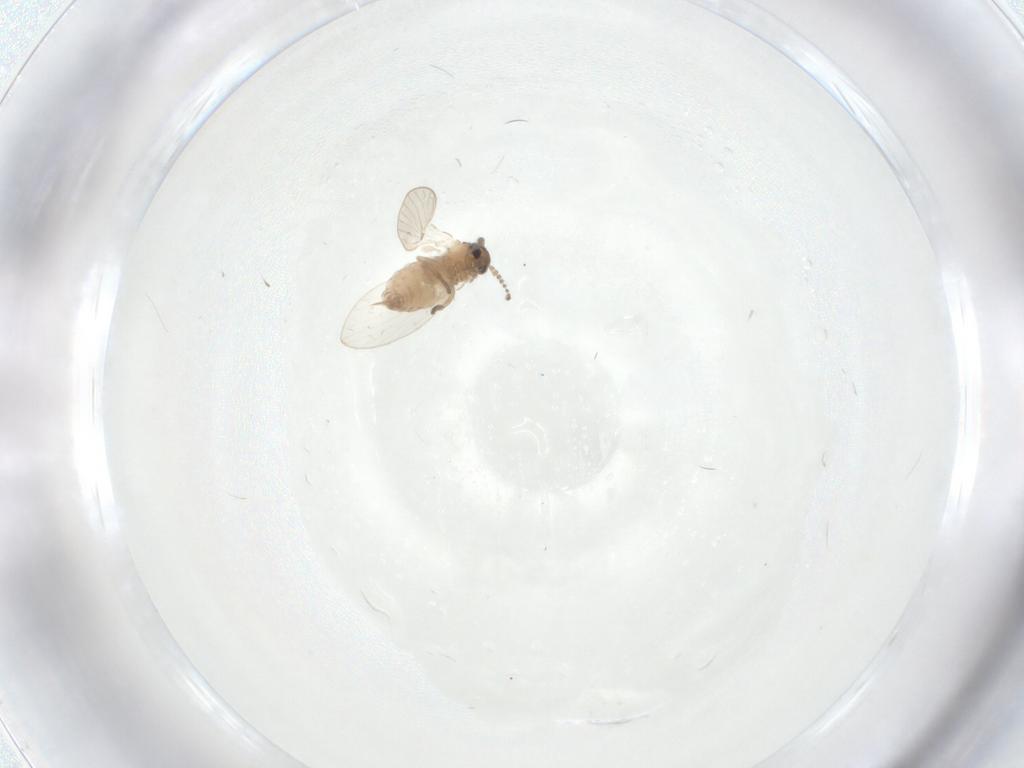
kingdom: Animalia
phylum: Arthropoda
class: Insecta
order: Diptera
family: Psychodidae
